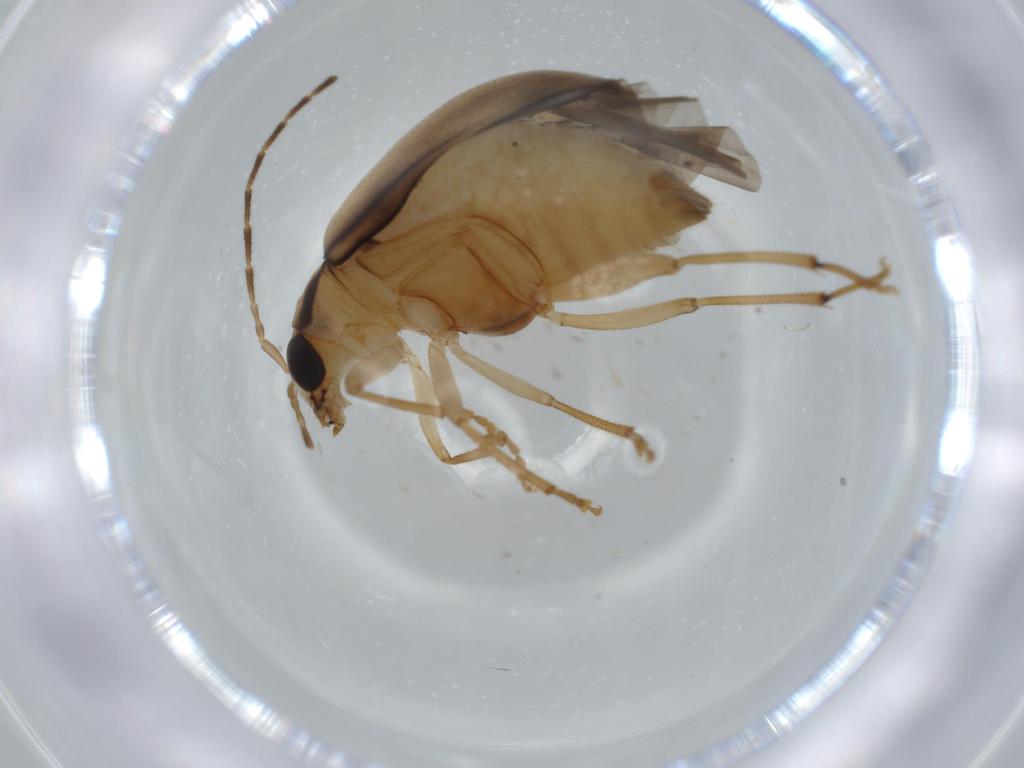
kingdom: Animalia
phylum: Arthropoda
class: Insecta
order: Coleoptera
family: Chrysomelidae
